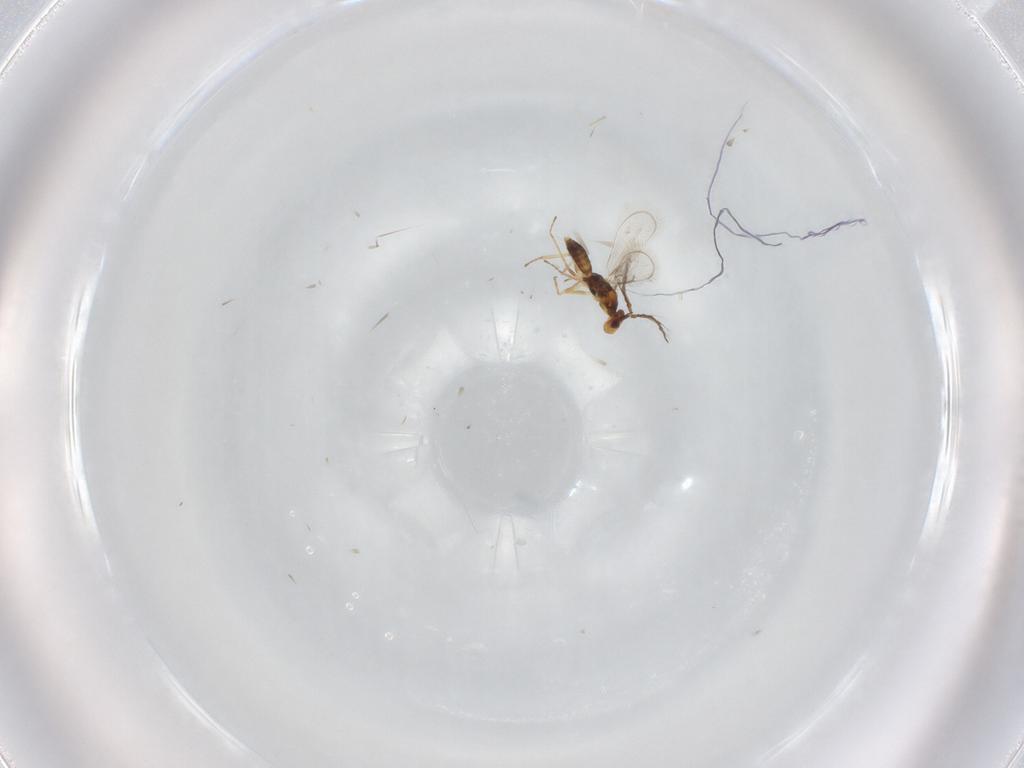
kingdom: Animalia
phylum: Arthropoda
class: Insecta
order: Hymenoptera
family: Eulophidae
